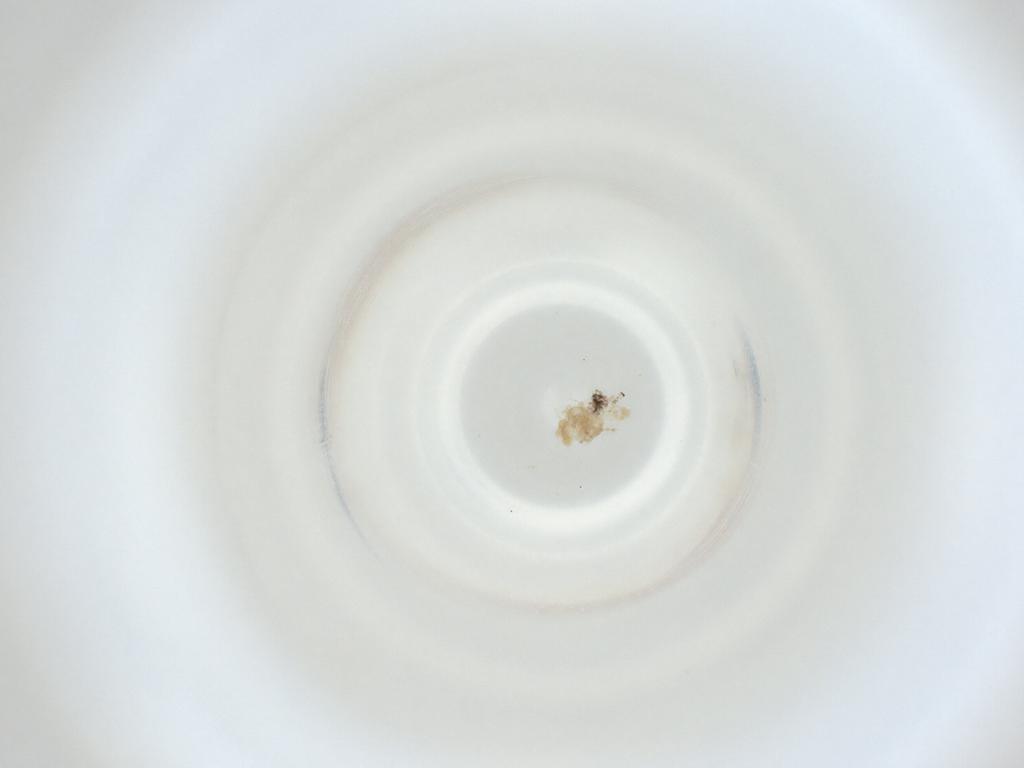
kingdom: Animalia
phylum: Arthropoda
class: Insecta
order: Diptera
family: Cecidomyiidae
